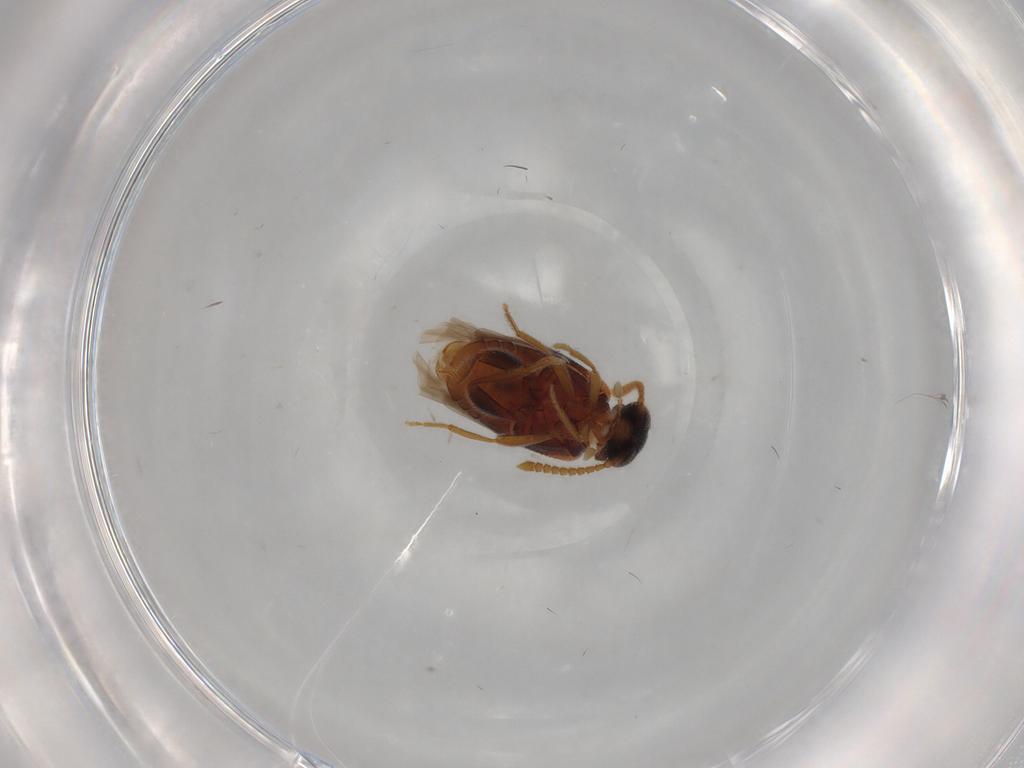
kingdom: Animalia
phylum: Arthropoda
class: Insecta
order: Coleoptera
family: Aderidae
